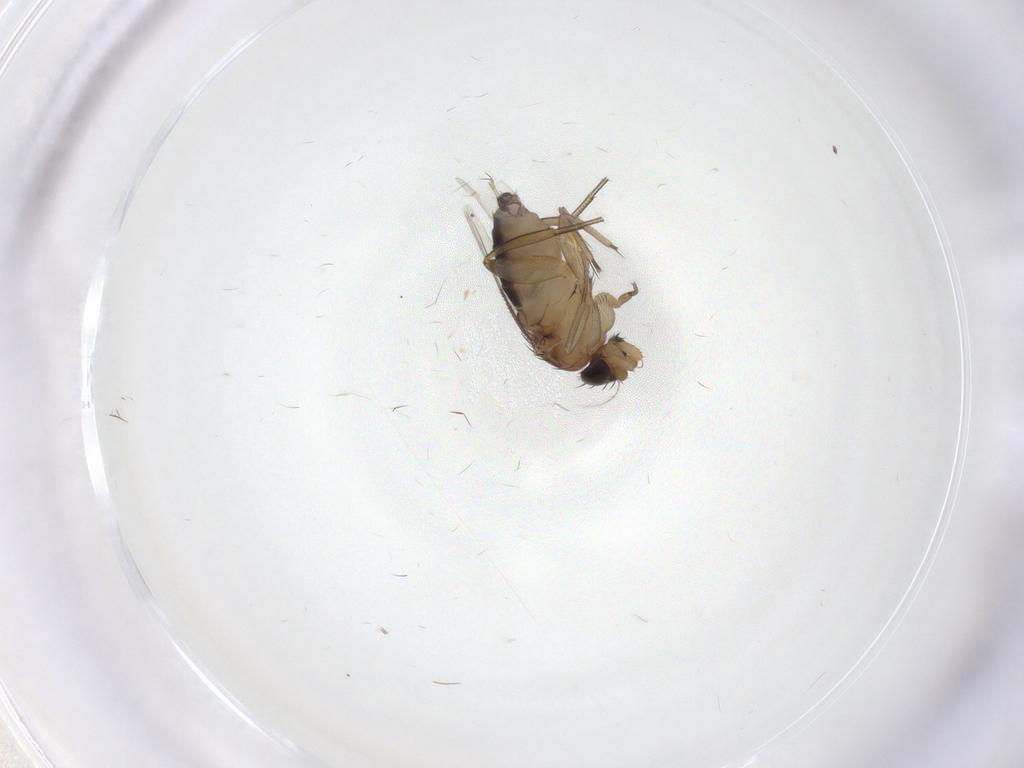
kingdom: Animalia
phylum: Arthropoda
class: Insecta
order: Diptera
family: Phoridae
